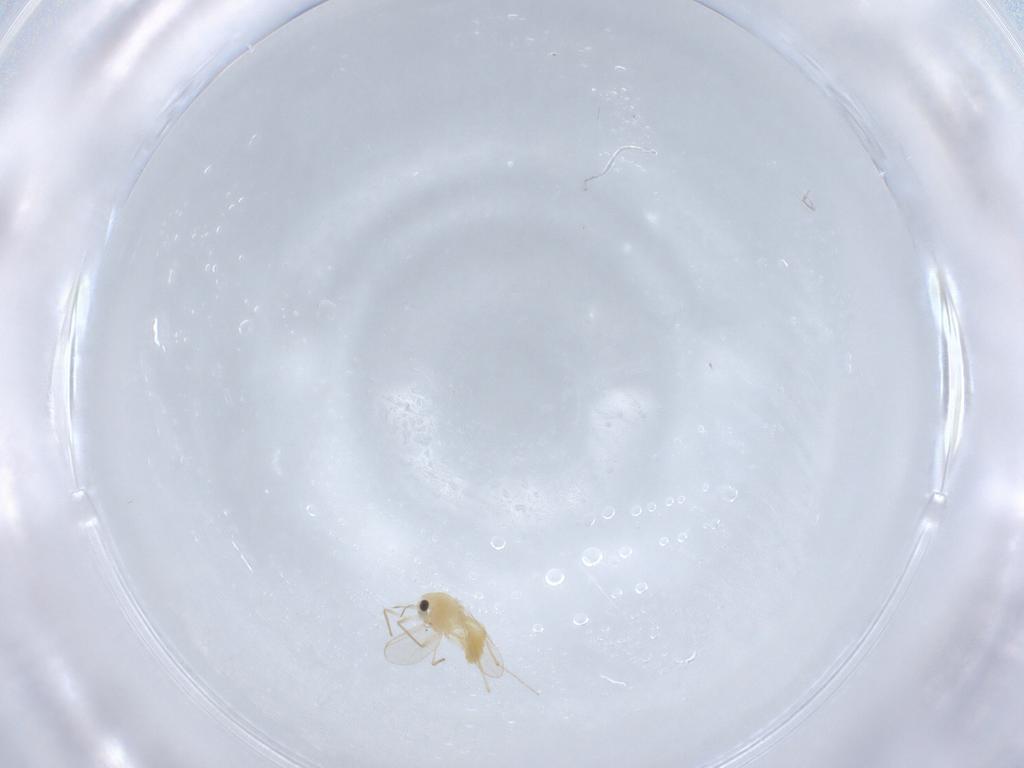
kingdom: Animalia
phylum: Arthropoda
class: Insecta
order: Diptera
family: Chironomidae
